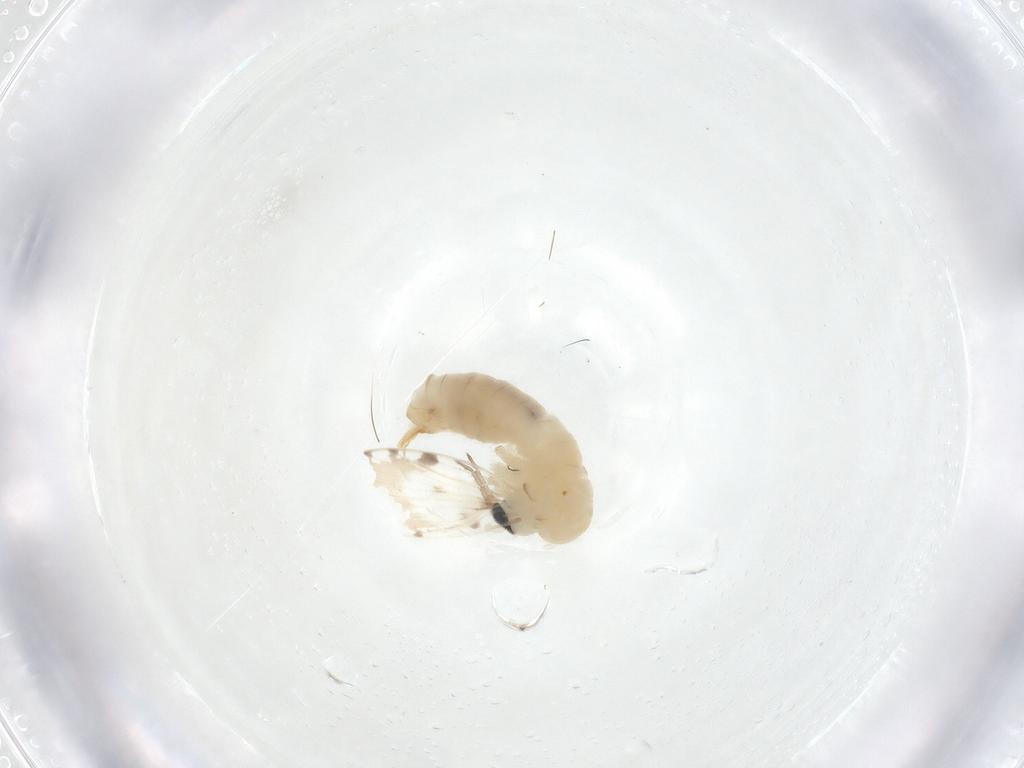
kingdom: Animalia
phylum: Arthropoda
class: Insecta
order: Diptera
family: Psychodidae
